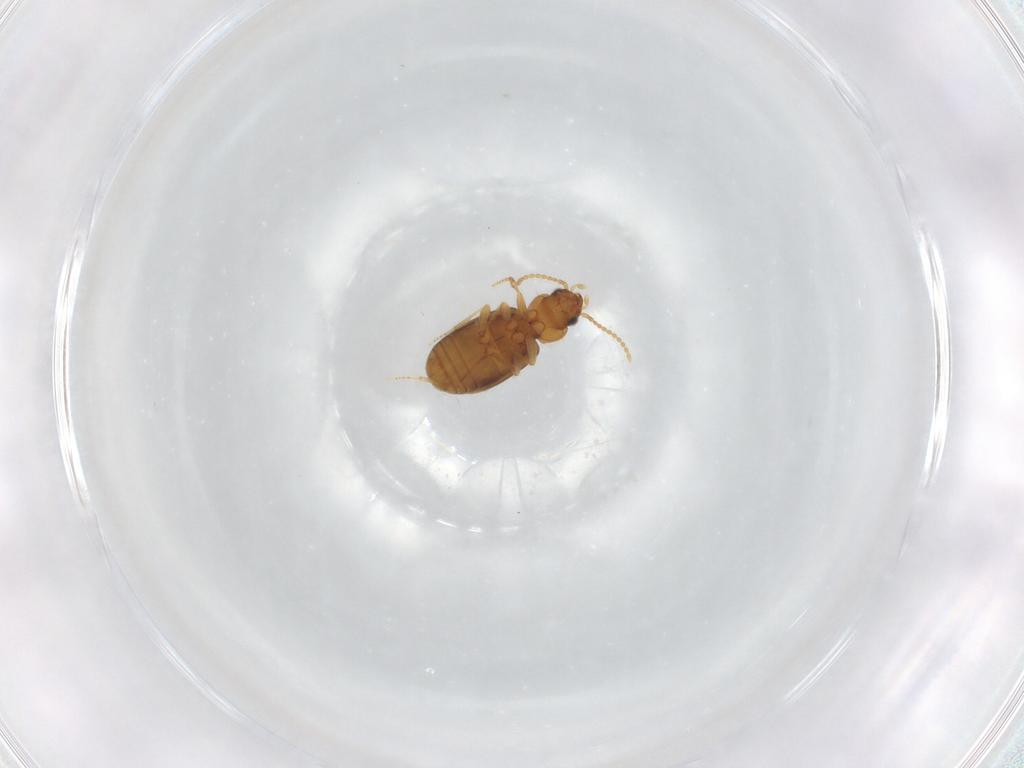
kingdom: Animalia
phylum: Arthropoda
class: Insecta
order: Coleoptera
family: Carabidae
